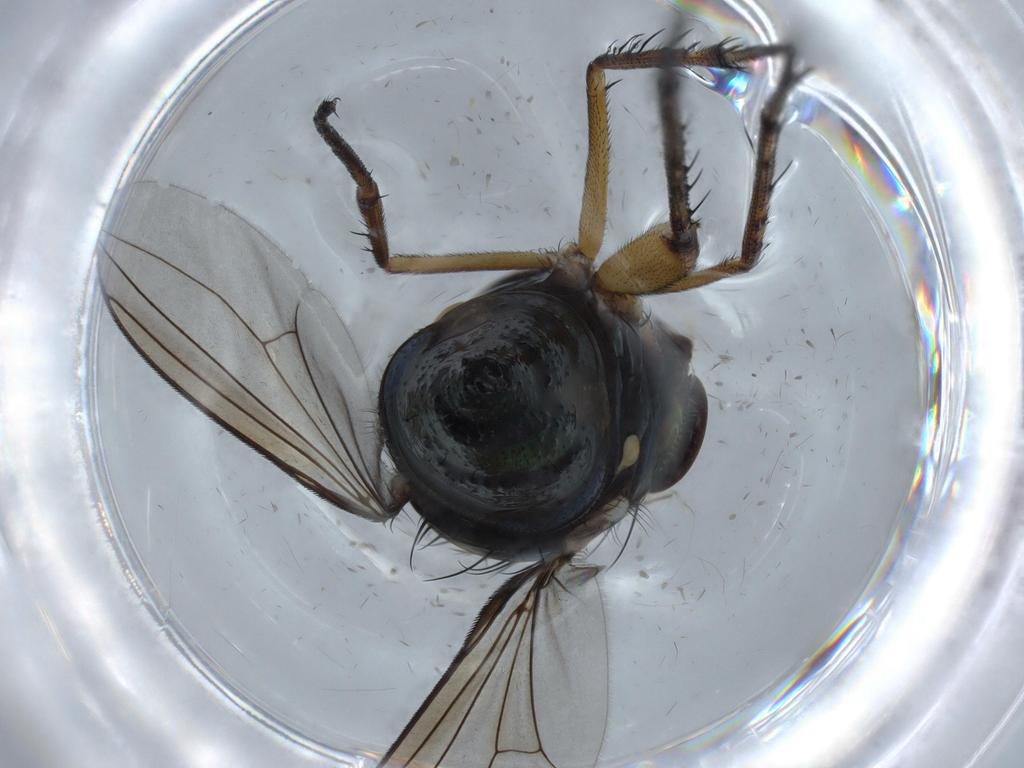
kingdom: Animalia
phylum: Arthropoda
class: Insecta
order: Diptera
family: Dolichopodidae
